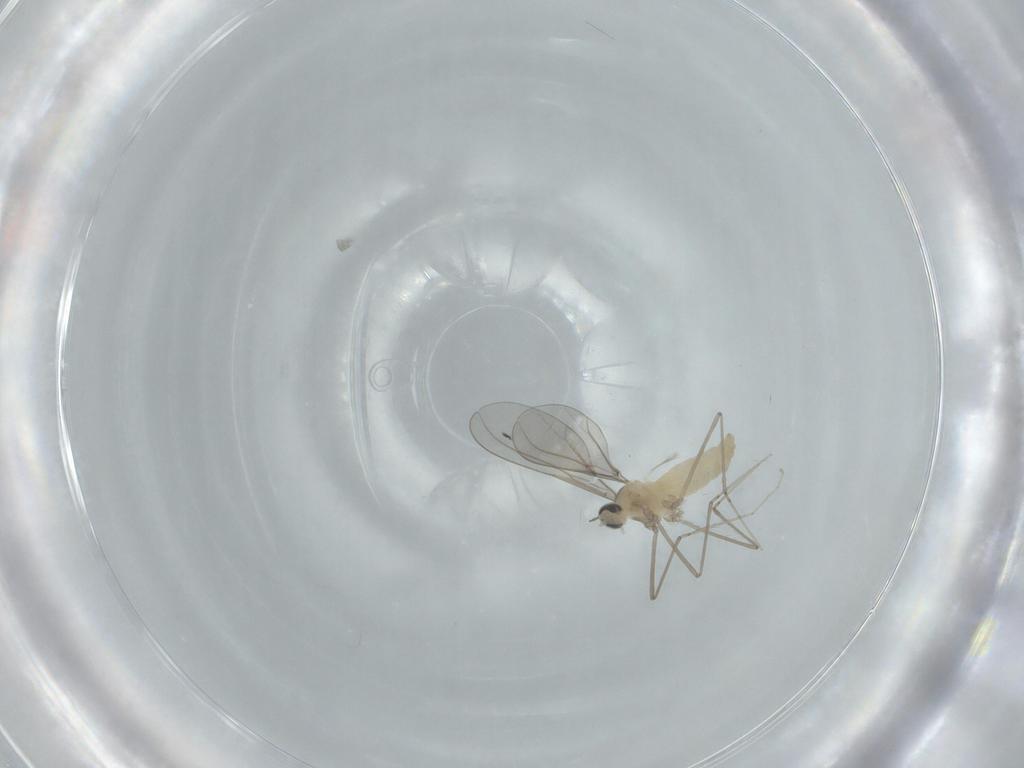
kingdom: Animalia
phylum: Arthropoda
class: Insecta
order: Diptera
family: Cecidomyiidae
